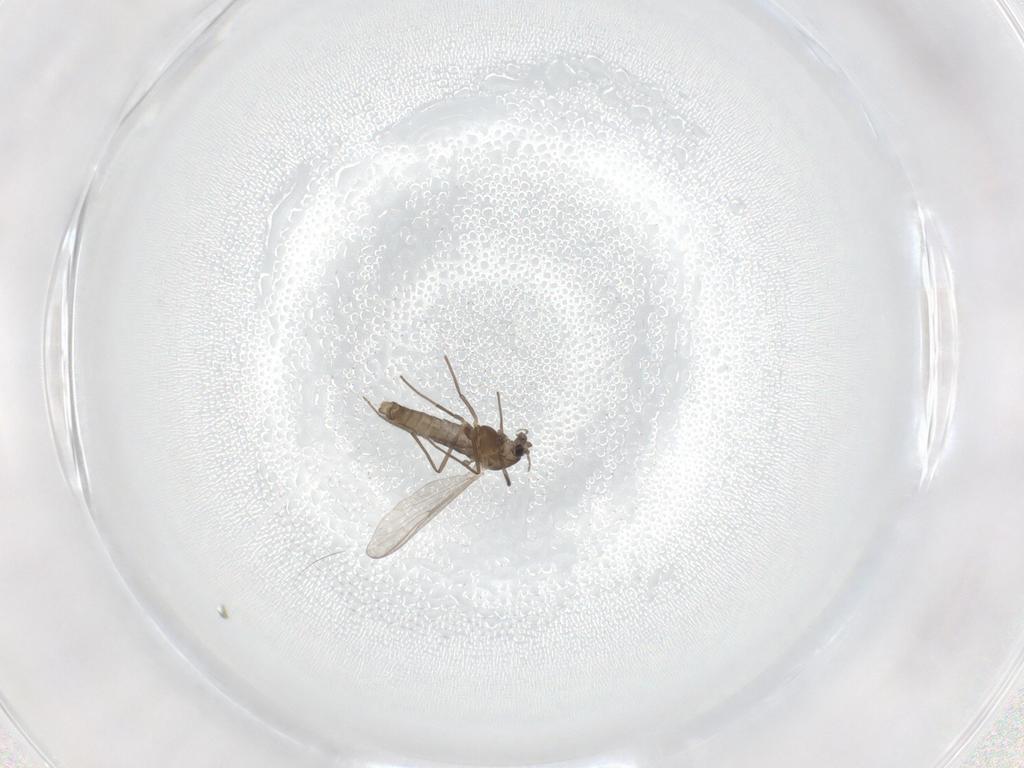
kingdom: Animalia
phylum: Arthropoda
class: Insecta
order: Diptera
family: Chironomidae
